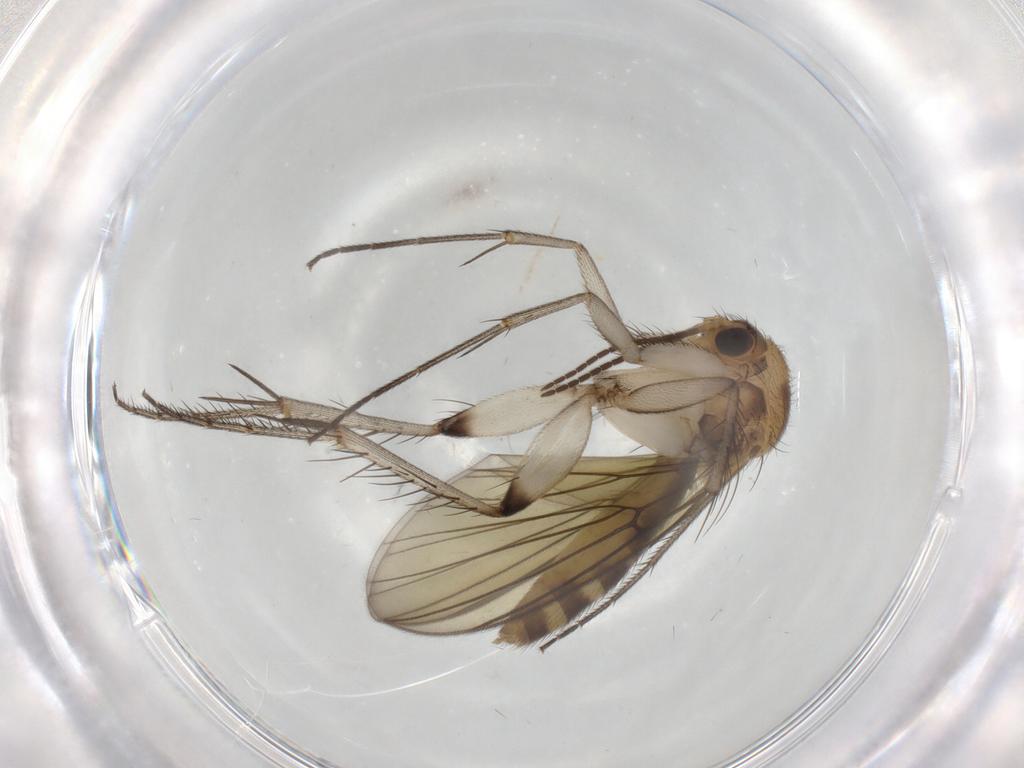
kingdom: Animalia
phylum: Arthropoda
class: Insecta
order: Diptera
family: Mycetophilidae
